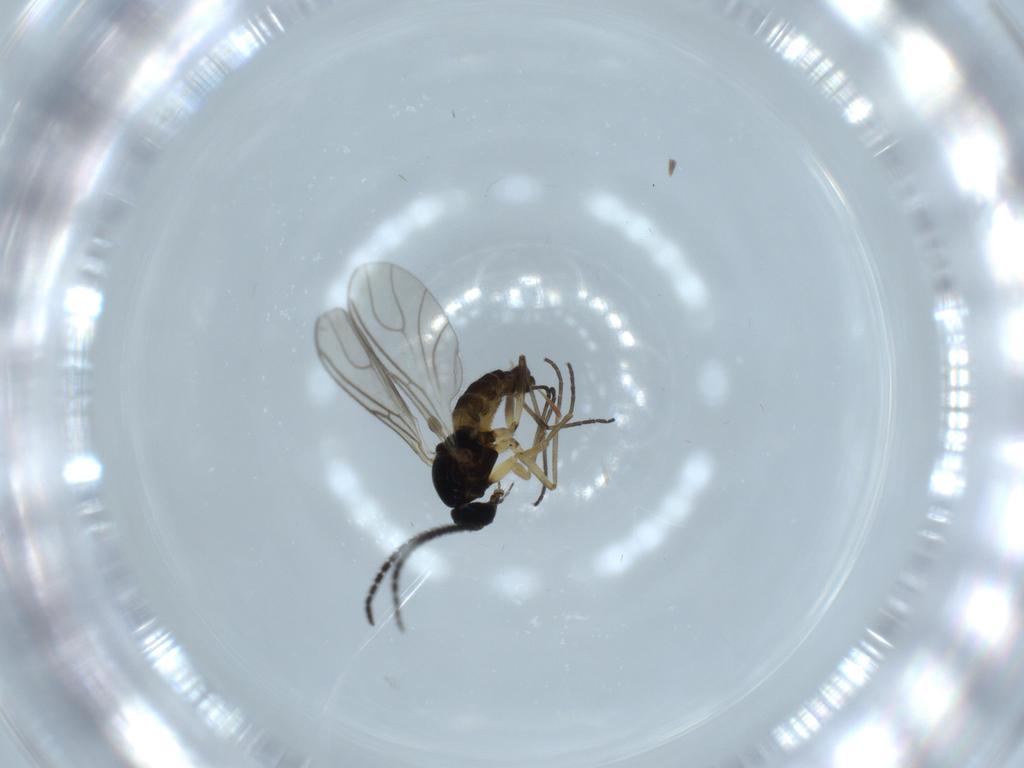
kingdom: Animalia
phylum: Arthropoda
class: Insecta
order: Diptera
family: Sciaridae
